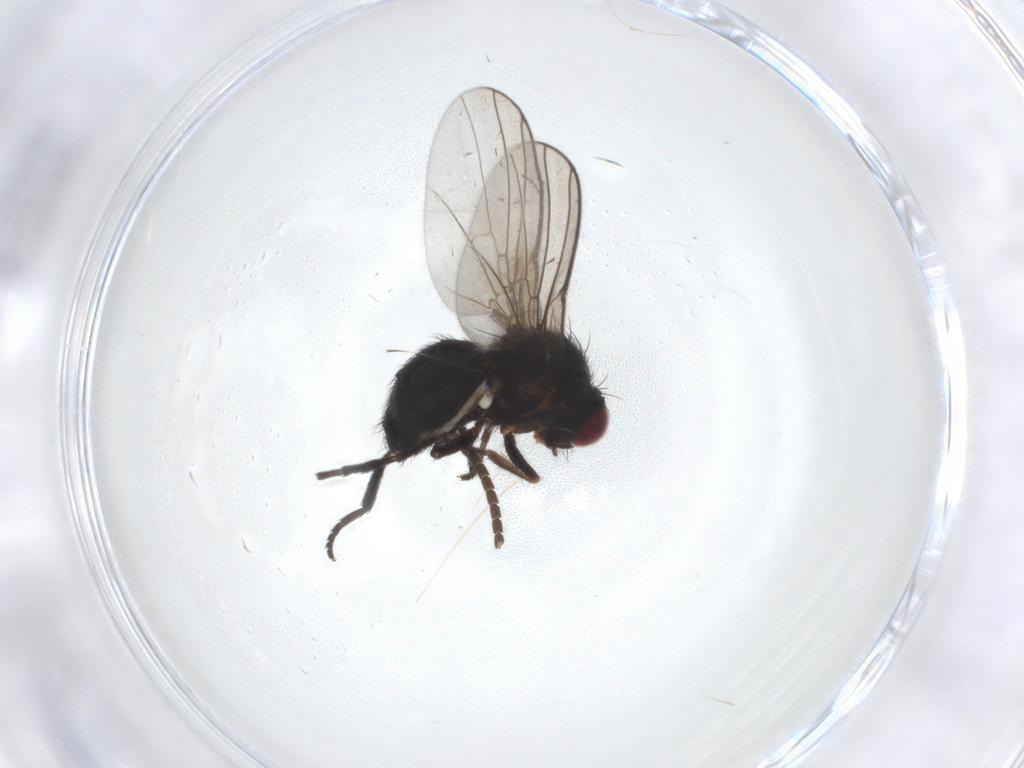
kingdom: Animalia
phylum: Arthropoda
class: Insecta
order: Diptera
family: Agromyzidae
